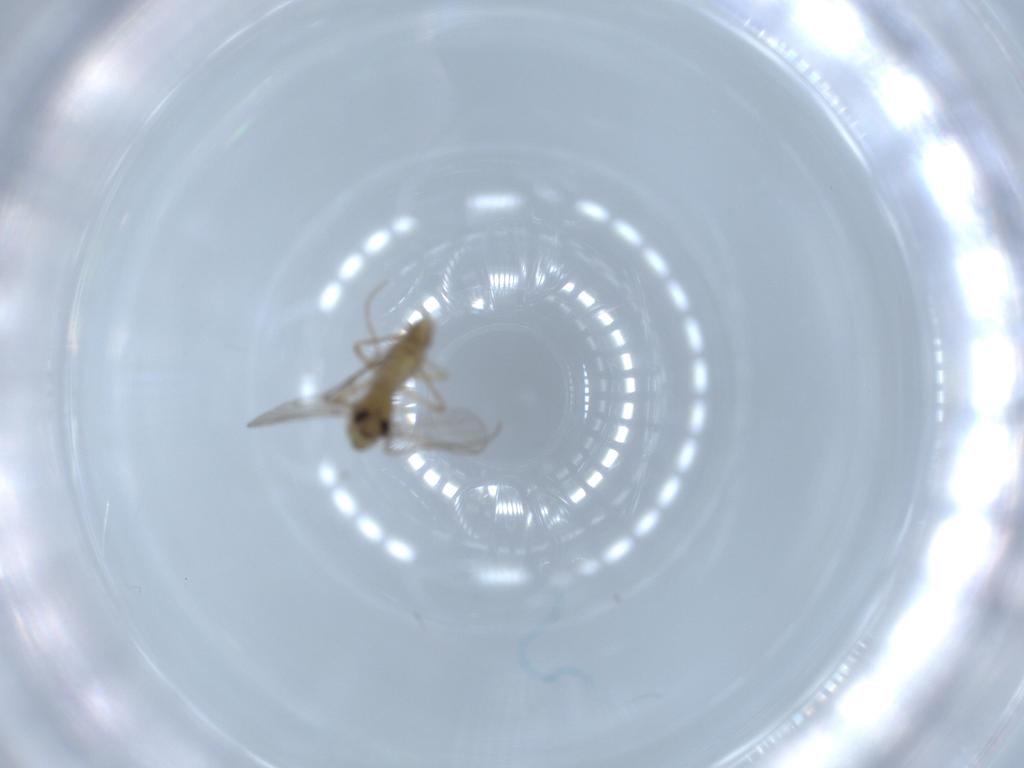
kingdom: Animalia
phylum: Arthropoda
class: Insecta
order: Diptera
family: Chironomidae
